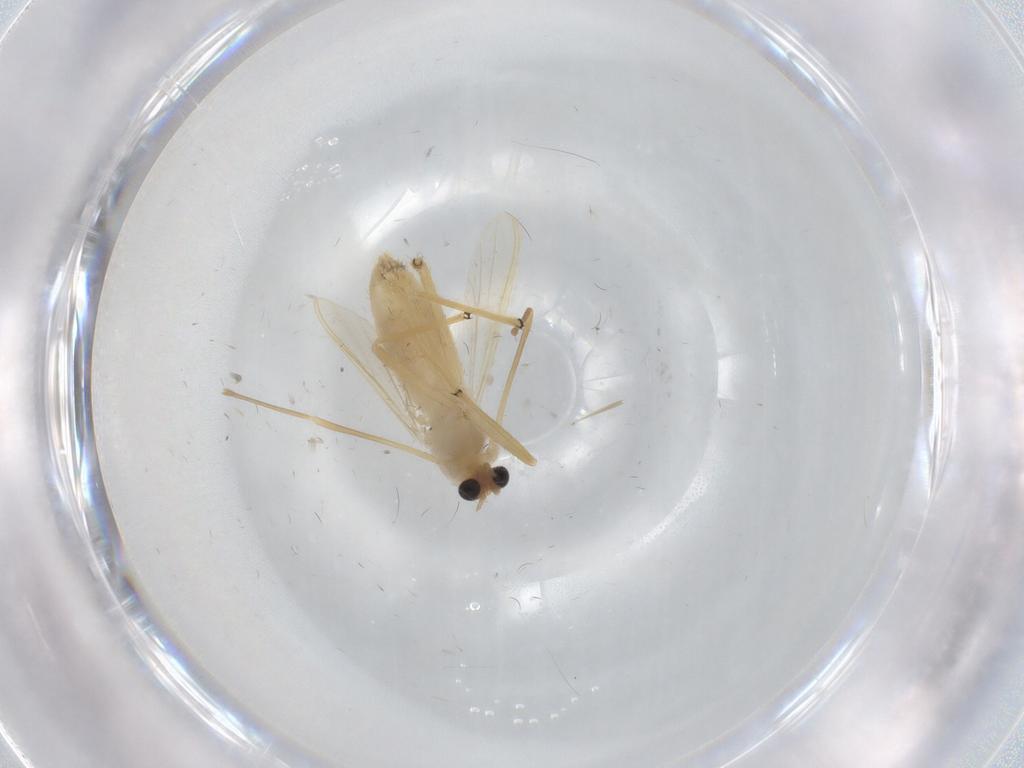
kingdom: Animalia
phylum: Arthropoda
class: Insecta
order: Diptera
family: Chironomidae
